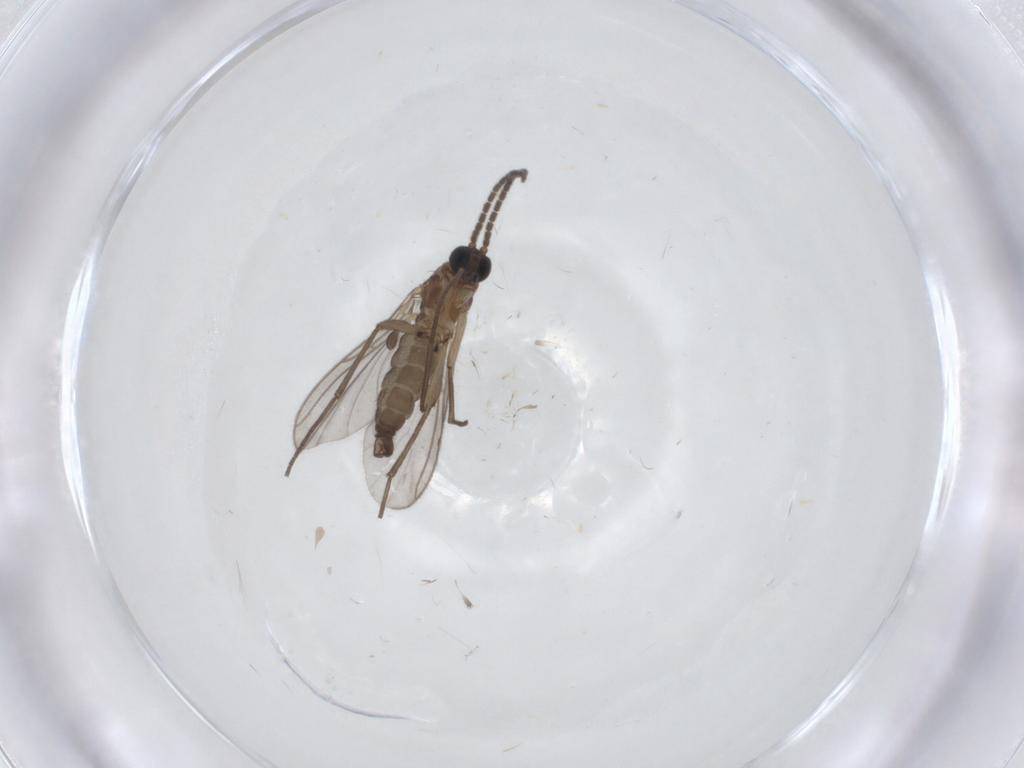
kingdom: Animalia
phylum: Arthropoda
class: Insecta
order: Diptera
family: Sciaridae
